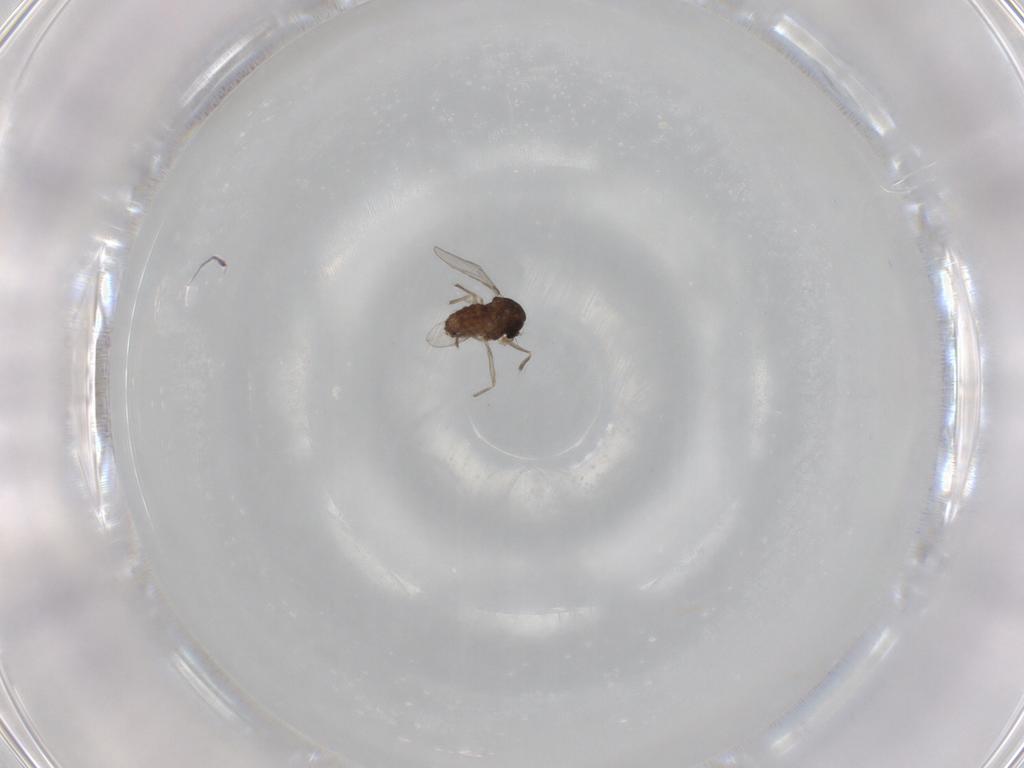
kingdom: Animalia
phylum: Arthropoda
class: Insecta
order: Diptera
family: Chironomidae
